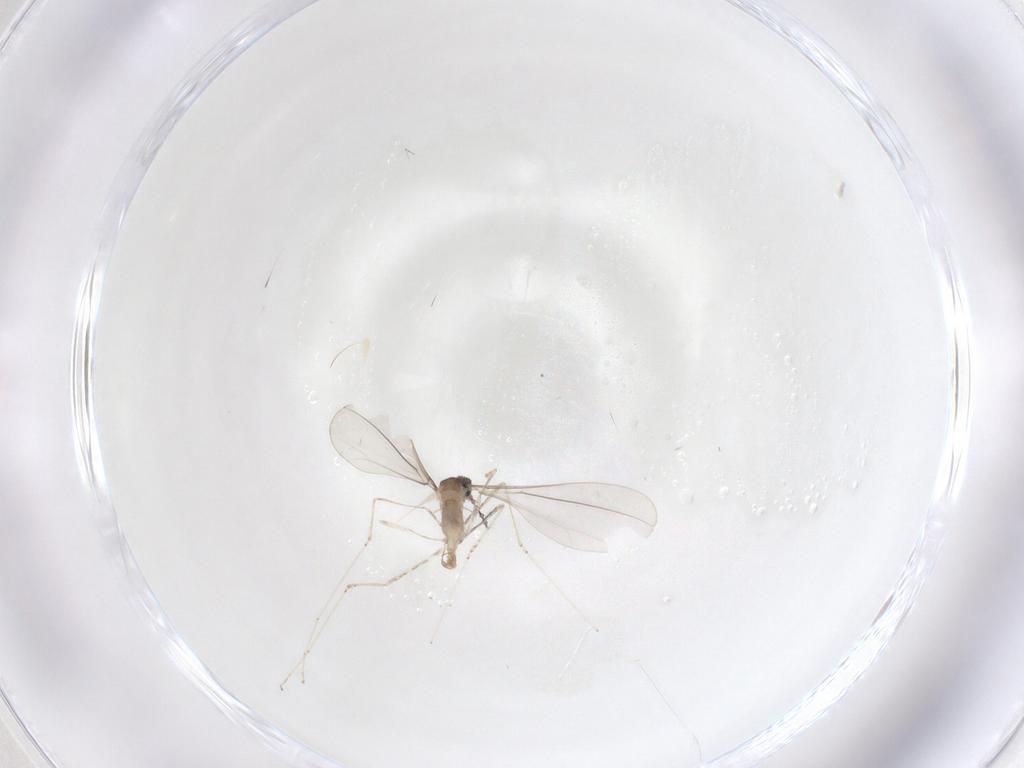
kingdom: Animalia
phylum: Arthropoda
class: Insecta
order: Diptera
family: Cecidomyiidae
